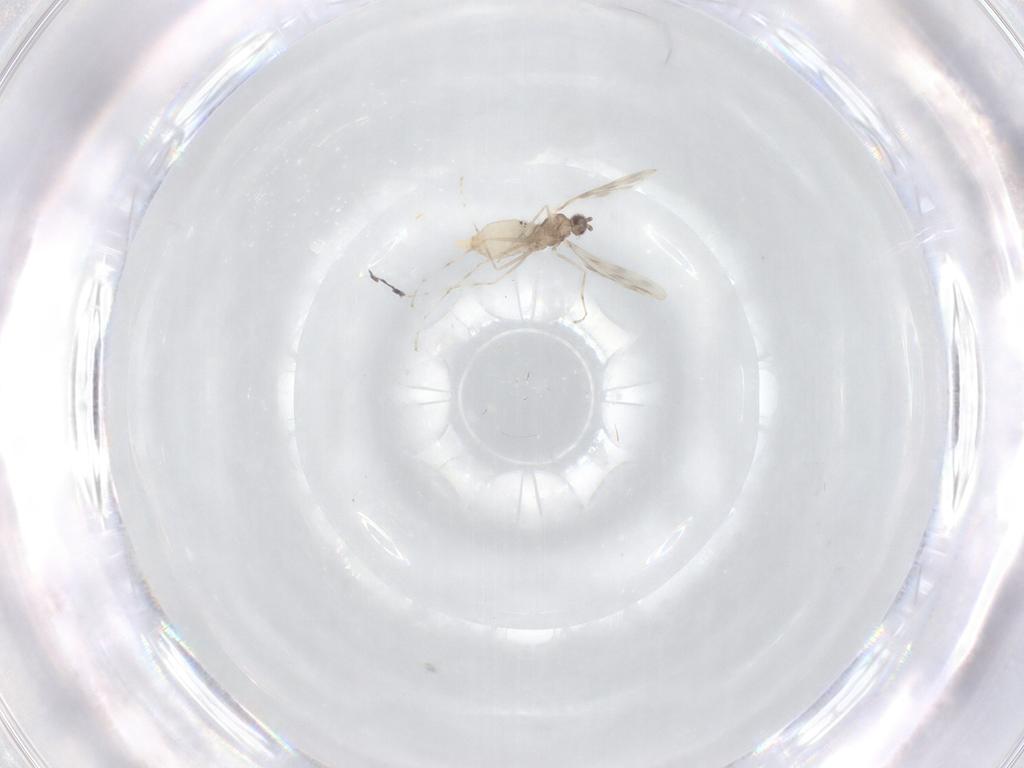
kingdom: Animalia
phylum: Arthropoda
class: Insecta
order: Diptera
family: Cecidomyiidae
